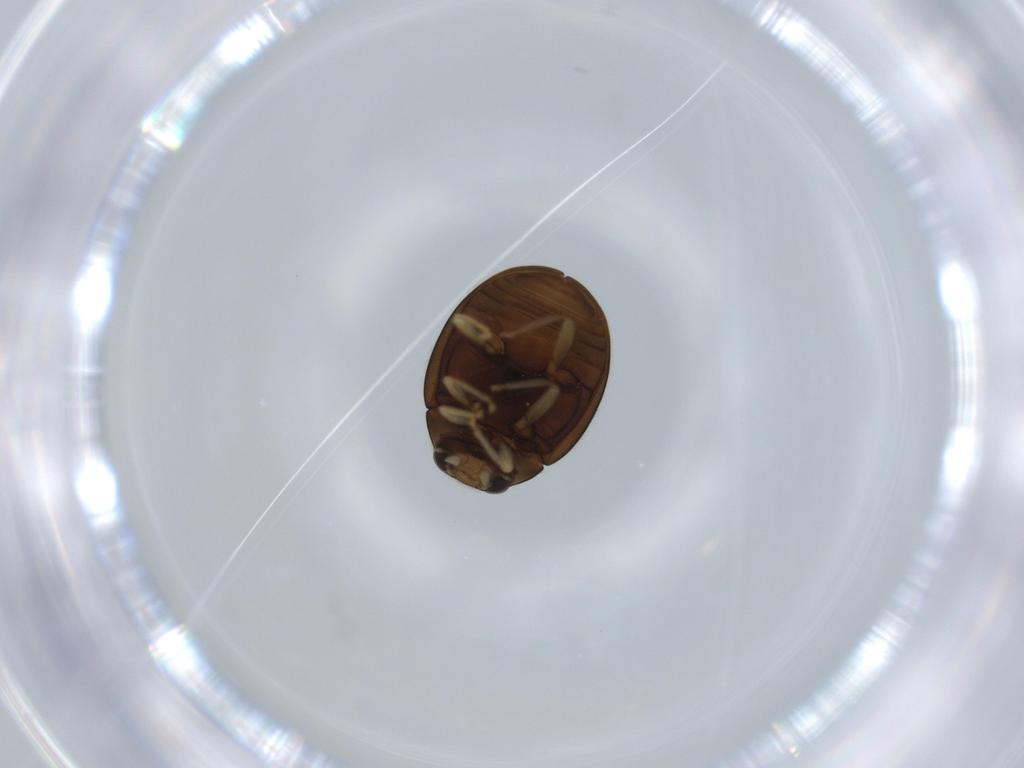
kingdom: Animalia
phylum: Arthropoda
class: Insecta
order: Coleoptera
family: Coccinellidae
